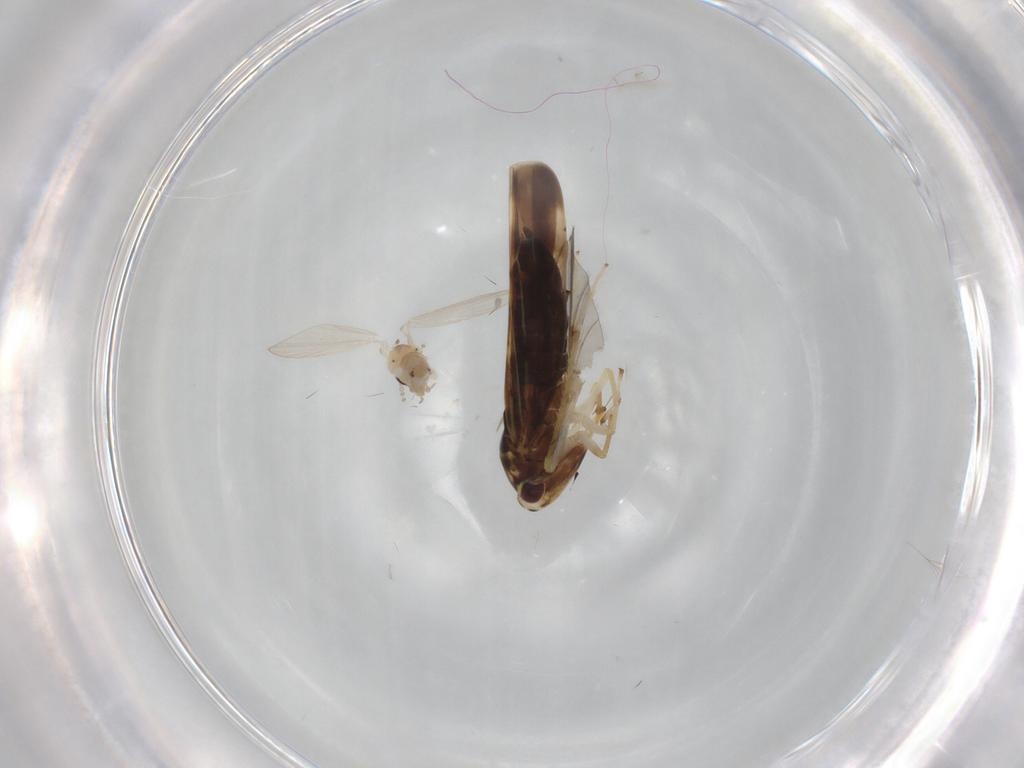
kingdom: Animalia
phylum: Arthropoda
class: Insecta
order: Diptera
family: Psychodidae
